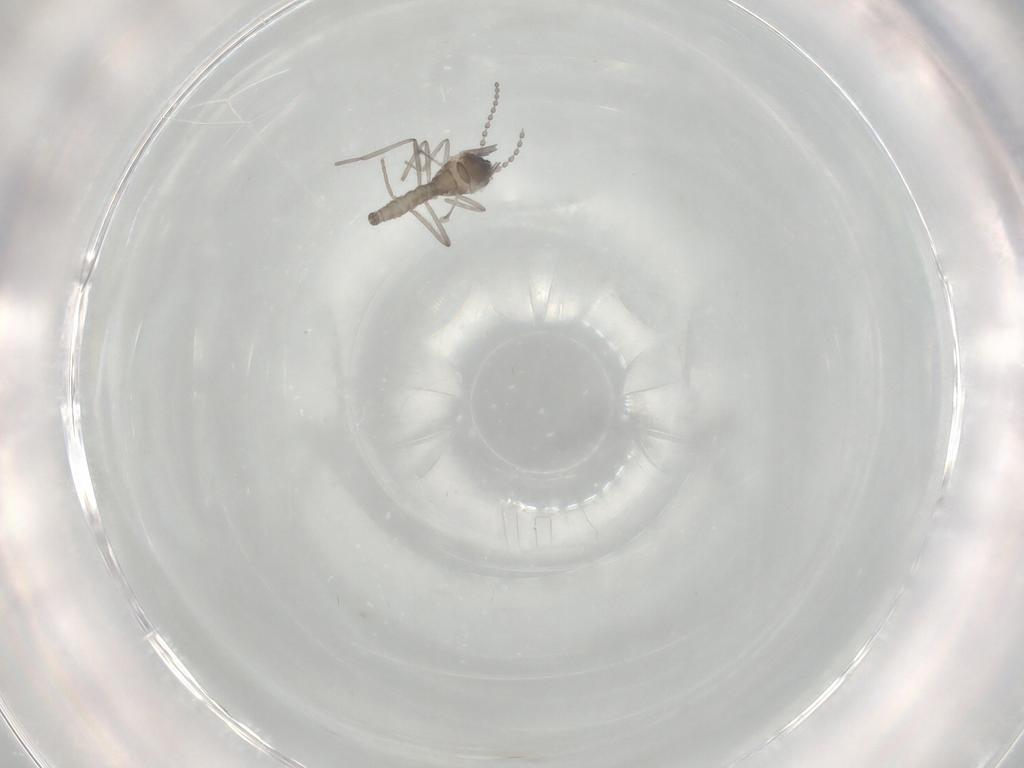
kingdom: Animalia
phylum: Arthropoda
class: Insecta
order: Diptera
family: Cecidomyiidae
